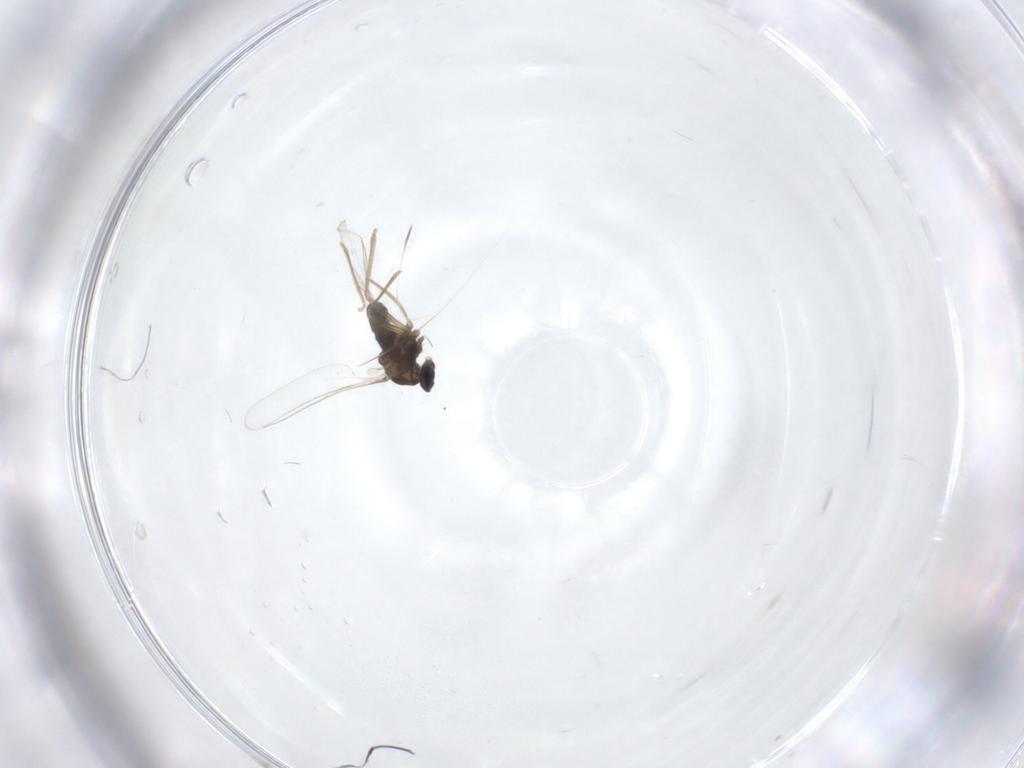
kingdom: Animalia
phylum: Arthropoda
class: Insecta
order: Diptera
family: Cecidomyiidae
